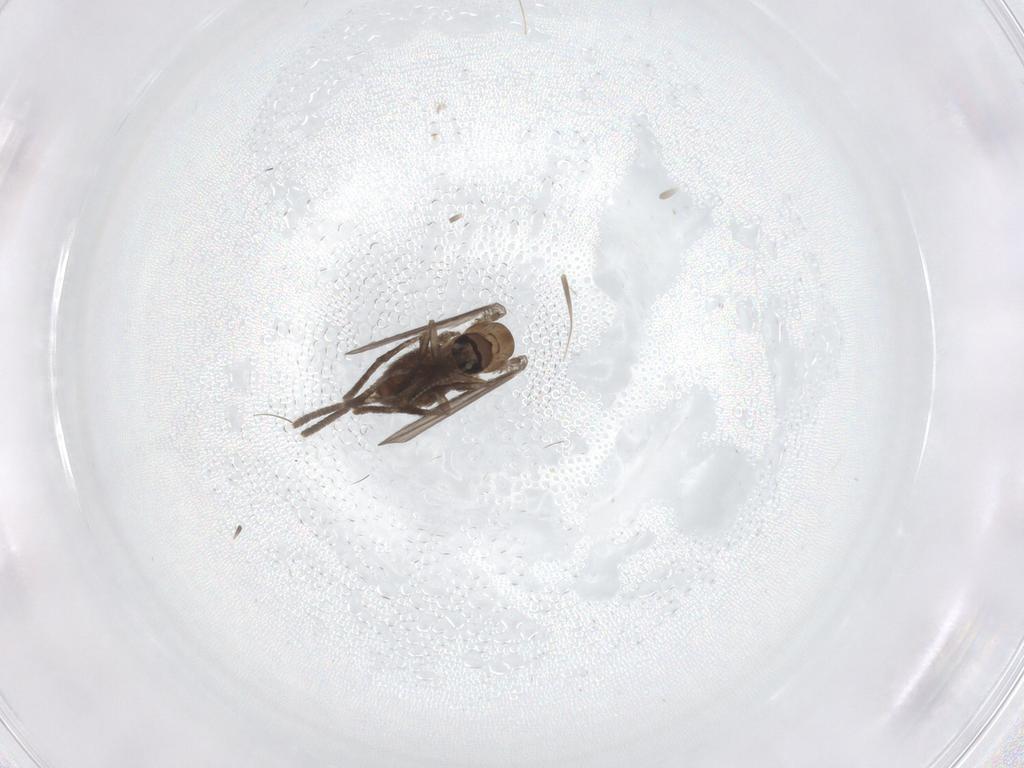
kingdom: Animalia
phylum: Arthropoda
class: Insecta
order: Diptera
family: Psychodidae
